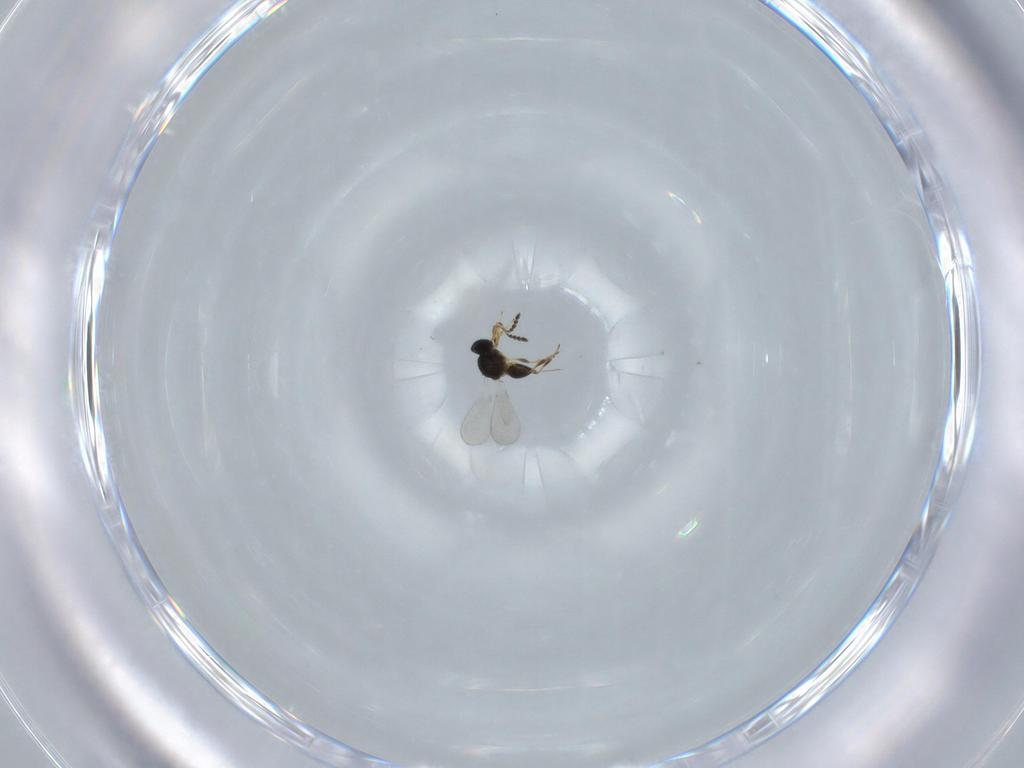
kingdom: Animalia
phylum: Arthropoda
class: Insecta
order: Hymenoptera
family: Platygastridae
